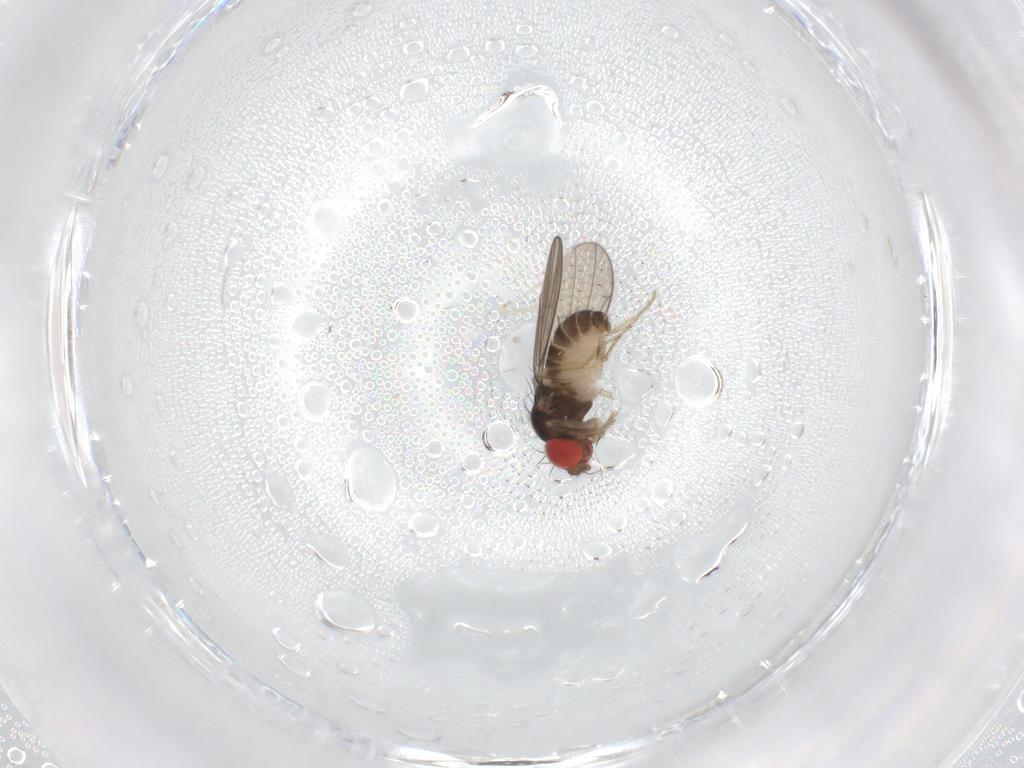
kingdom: Animalia
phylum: Arthropoda
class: Insecta
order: Diptera
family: Drosophilidae
